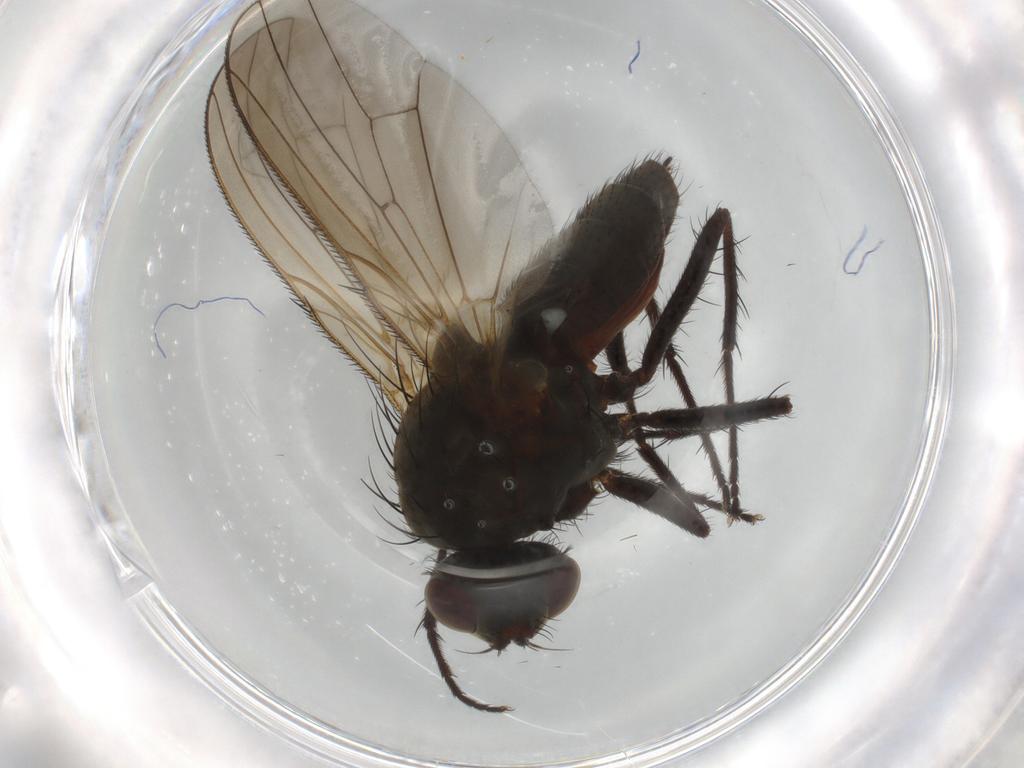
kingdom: Animalia
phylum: Arthropoda
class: Insecta
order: Diptera
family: Anthomyiidae
